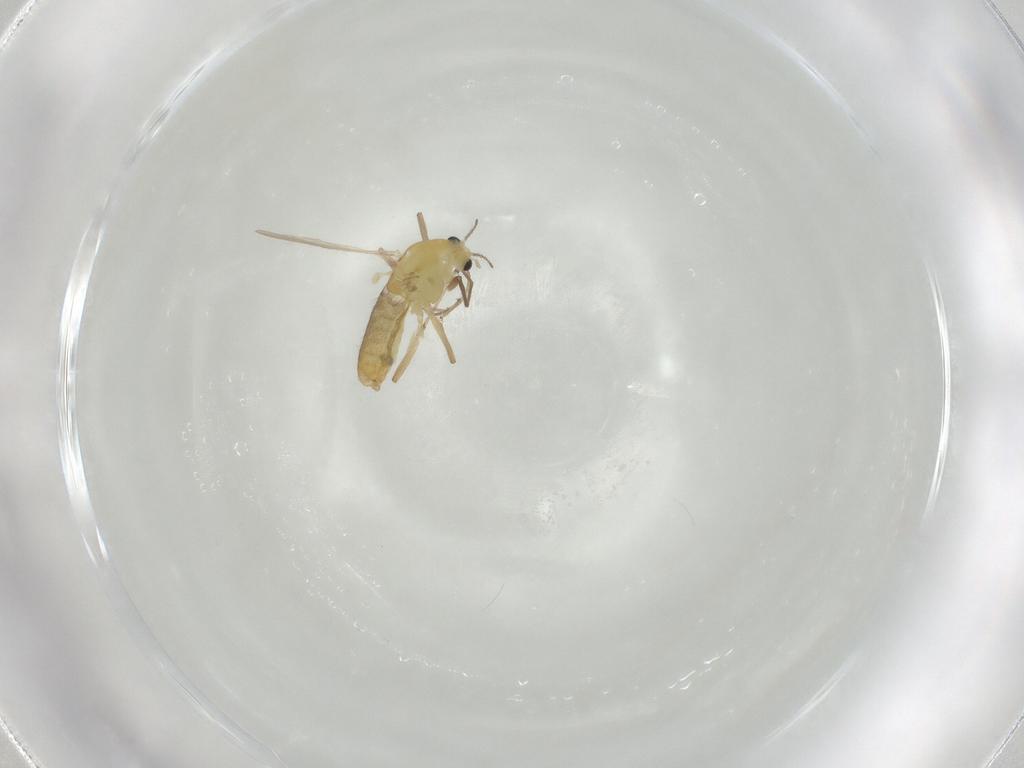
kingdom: Animalia
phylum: Arthropoda
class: Insecta
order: Diptera
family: Chironomidae
